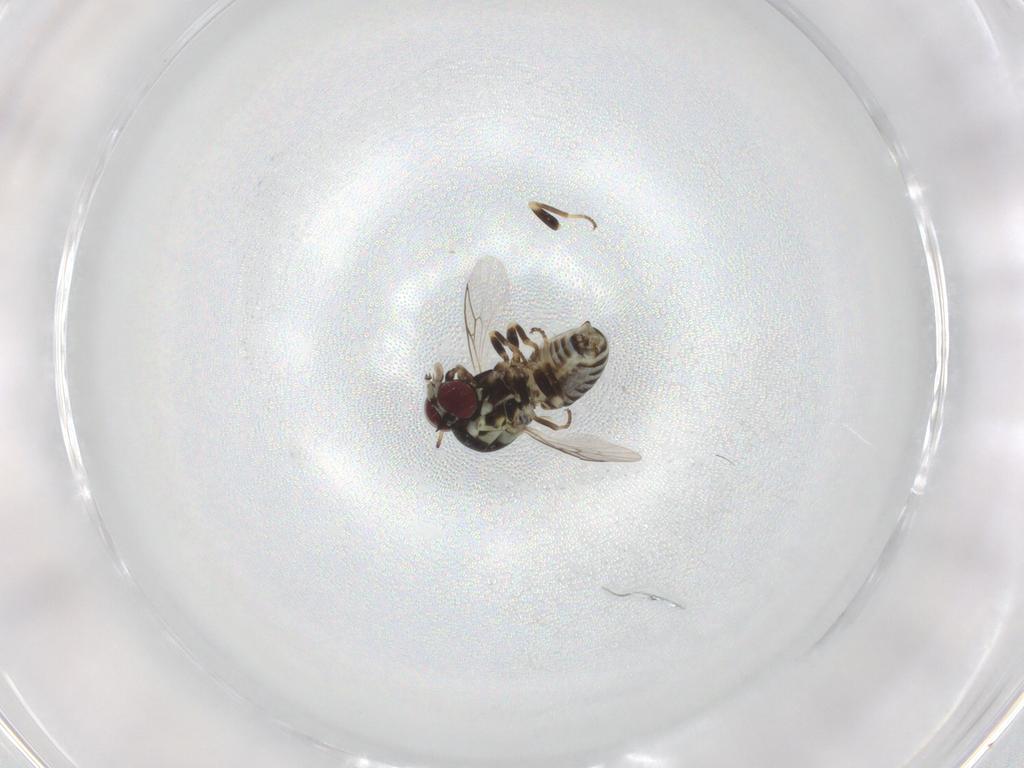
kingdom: Animalia
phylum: Arthropoda
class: Insecta
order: Diptera
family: Bombyliidae
